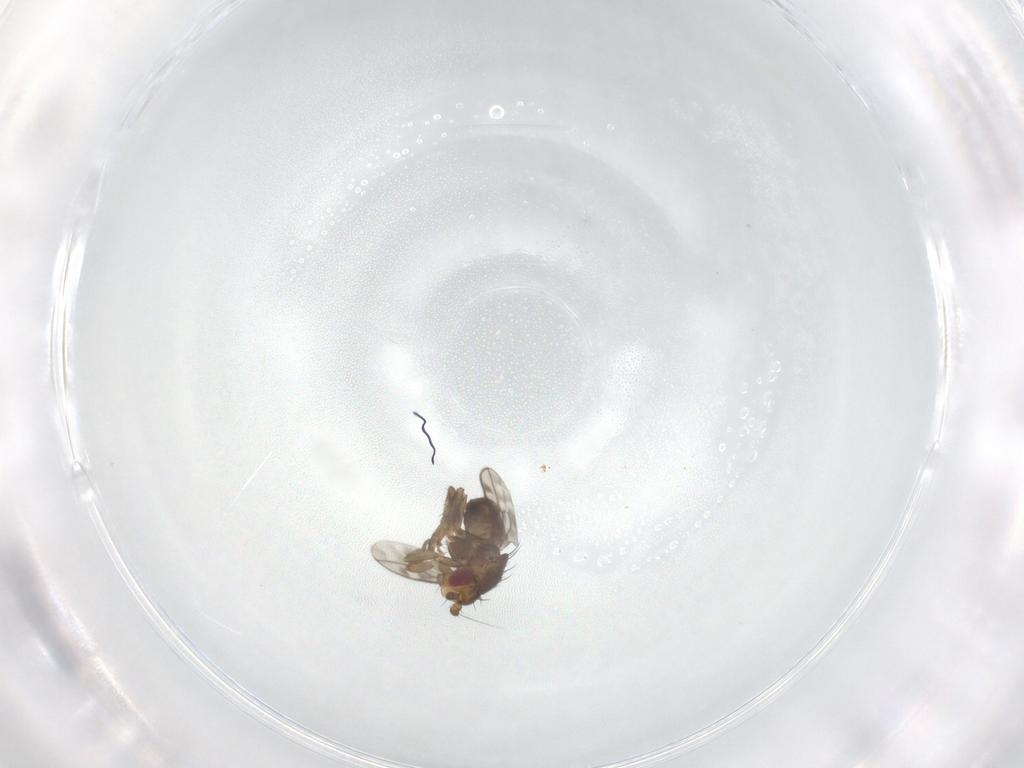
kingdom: Animalia
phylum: Arthropoda
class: Insecta
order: Diptera
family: Sphaeroceridae
